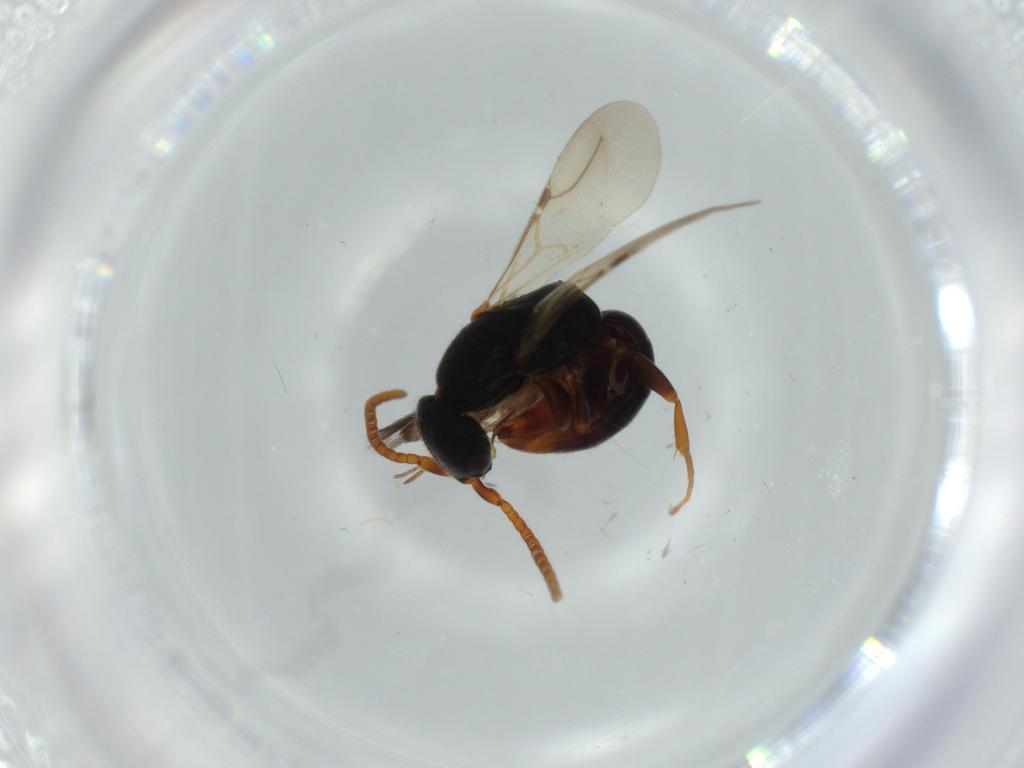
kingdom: Animalia
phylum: Arthropoda
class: Insecta
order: Hymenoptera
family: Bethylidae
